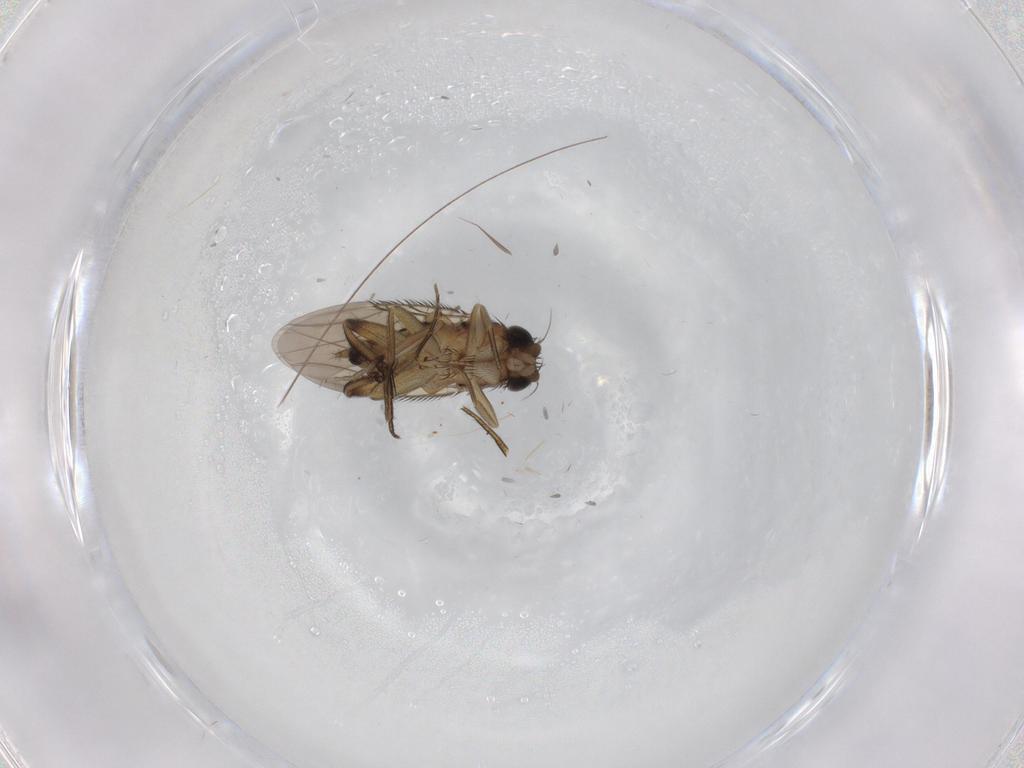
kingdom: Animalia
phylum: Arthropoda
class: Insecta
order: Diptera
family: Phoridae
